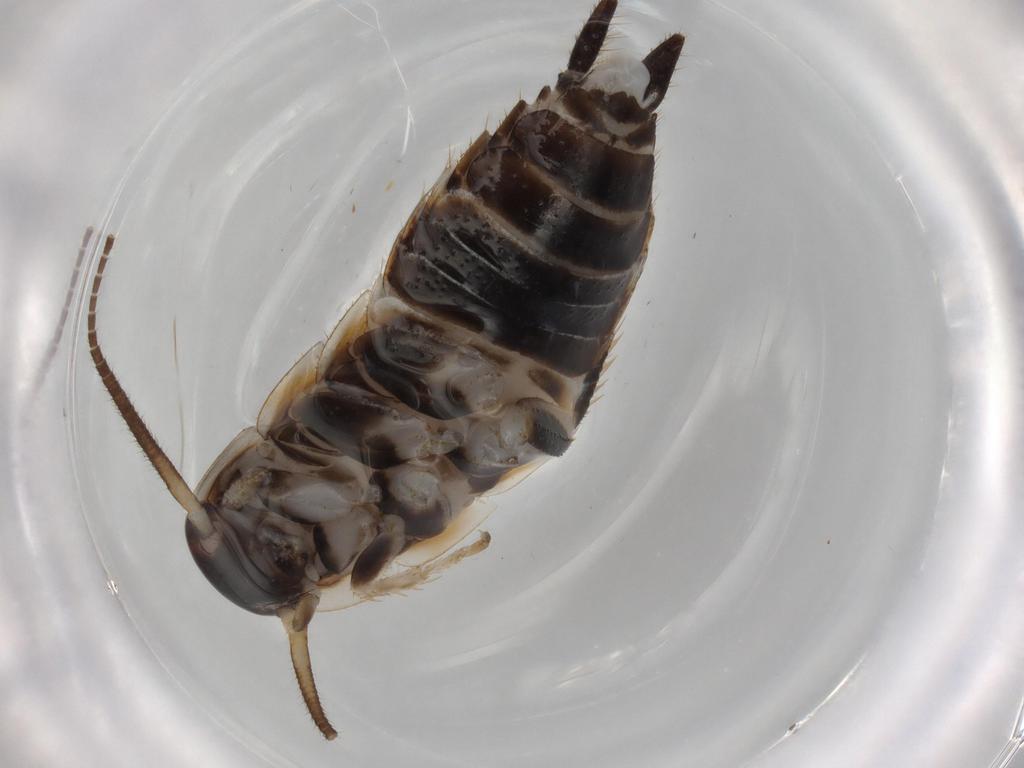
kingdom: Animalia
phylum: Arthropoda
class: Insecta
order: Blattodea
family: Ectobiidae
